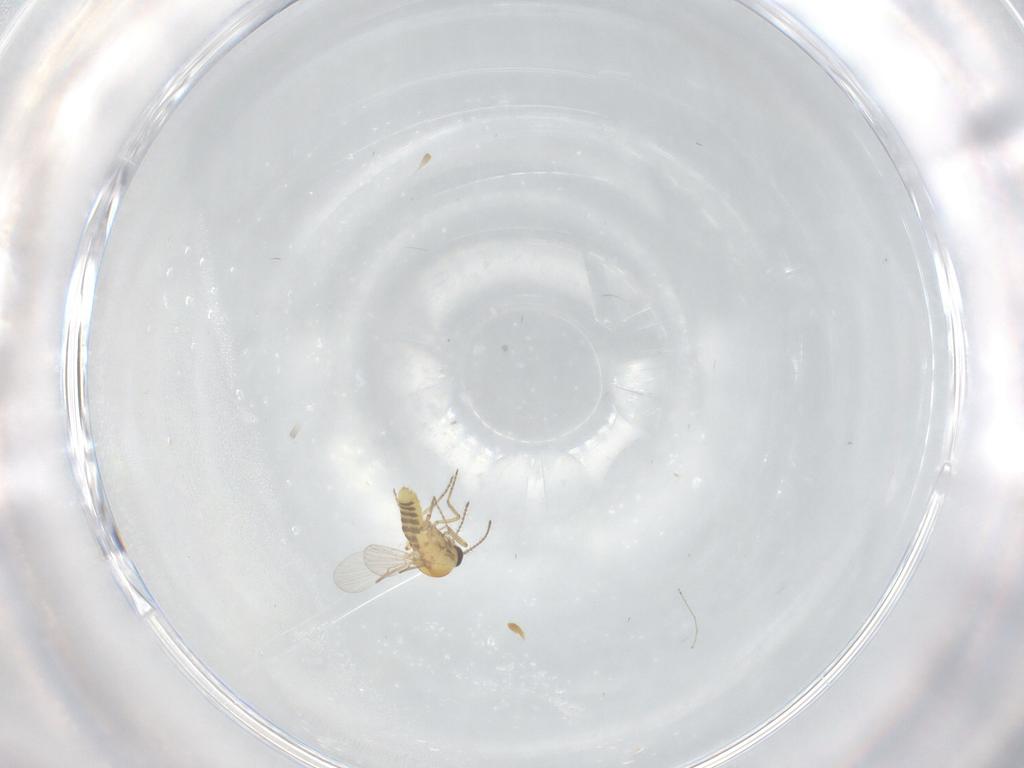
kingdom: Animalia
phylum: Arthropoda
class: Insecta
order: Diptera
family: Ceratopogonidae
